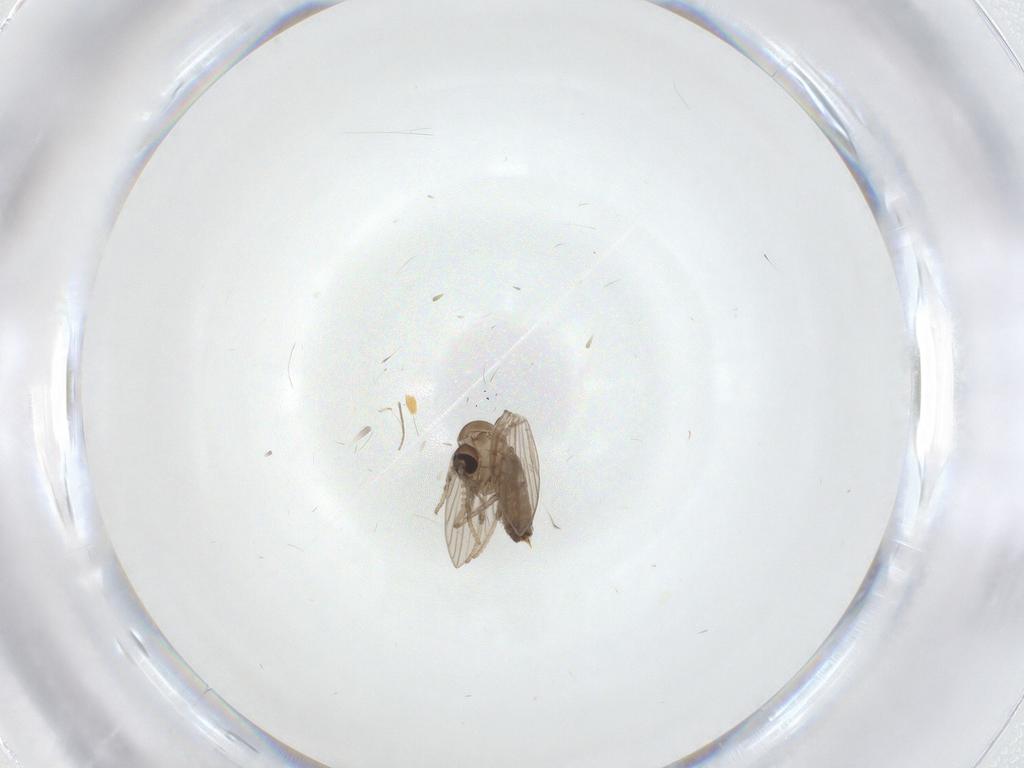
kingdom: Animalia
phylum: Arthropoda
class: Insecta
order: Diptera
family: Psychodidae
